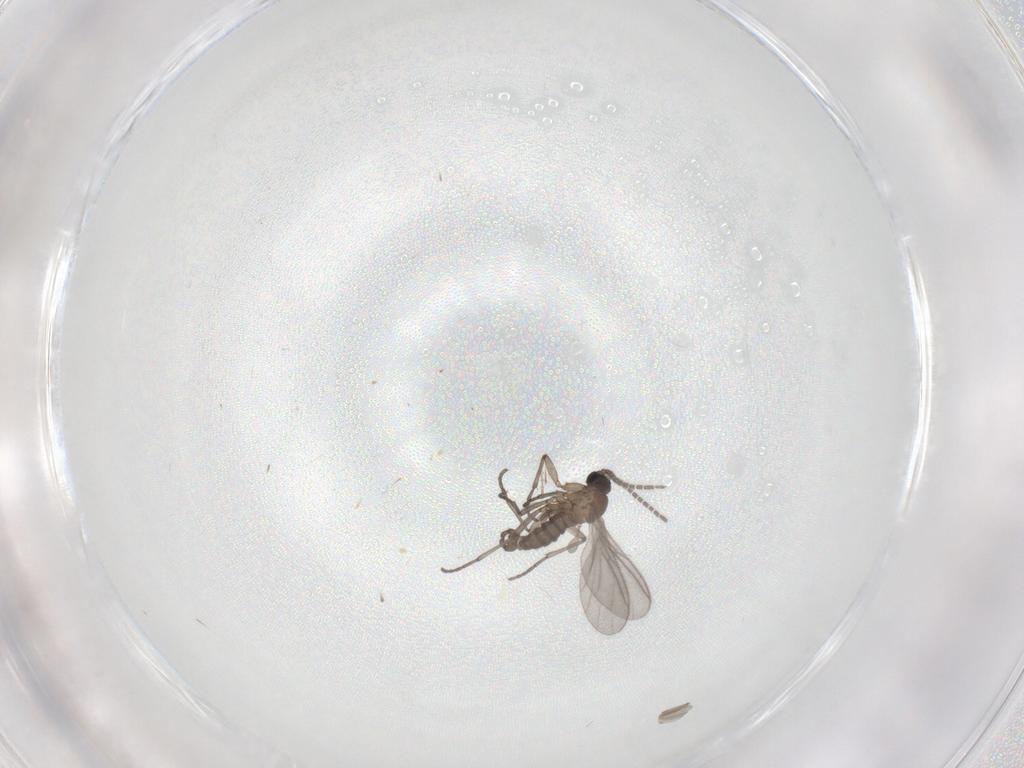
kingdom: Animalia
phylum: Arthropoda
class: Insecta
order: Diptera
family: Sciaridae
